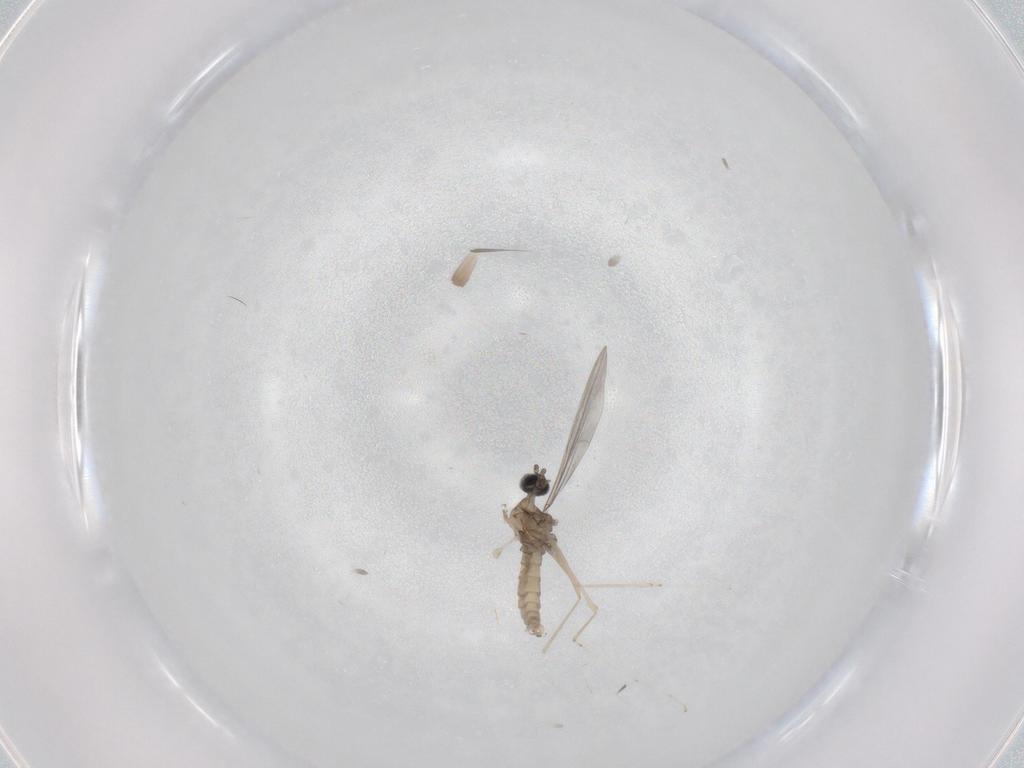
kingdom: Animalia
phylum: Arthropoda
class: Insecta
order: Diptera
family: Cecidomyiidae
